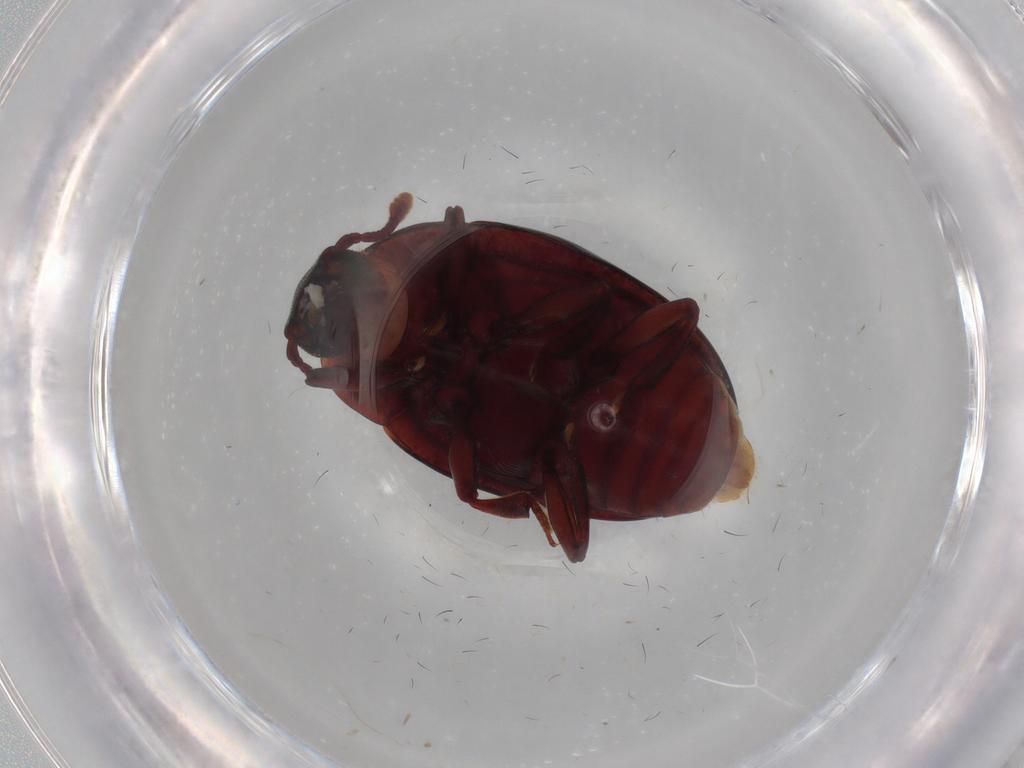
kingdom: Animalia
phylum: Arthropoda
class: Insecta
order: Coleoptera
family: Zopheridae
